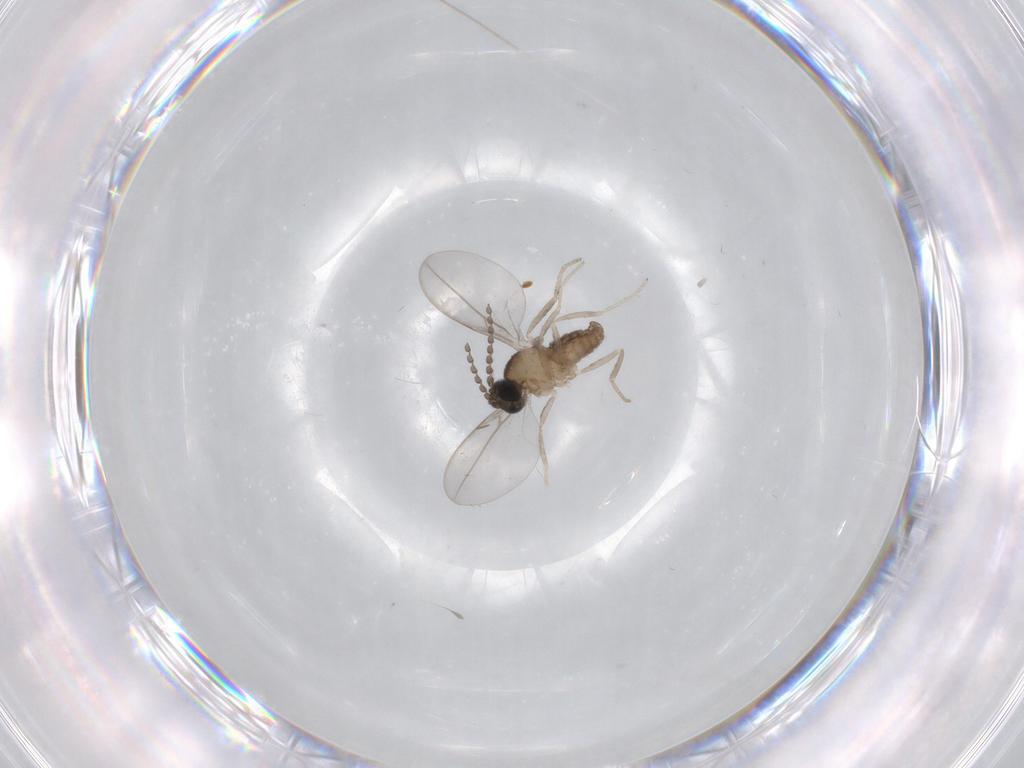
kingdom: Animalia
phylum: Arthropoda
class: Insecta
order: Diptera
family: Cecidomyiidae
